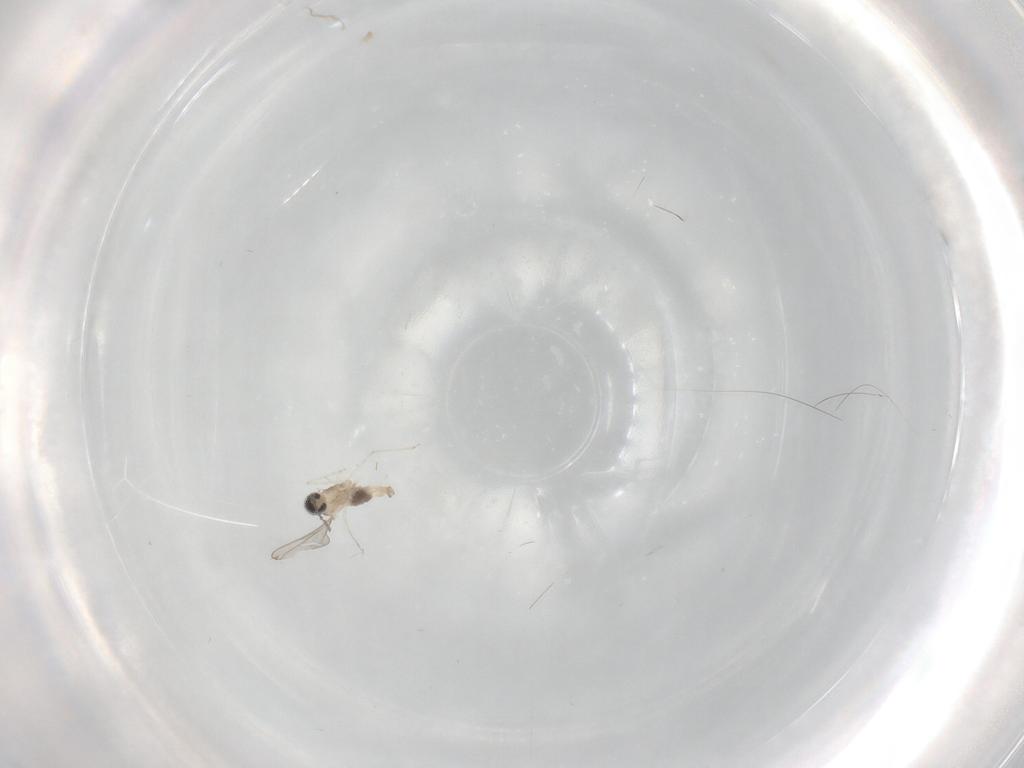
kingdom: Animalia
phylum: Arthropoda
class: Insecta
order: Diptera
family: Cecidomyiidae
